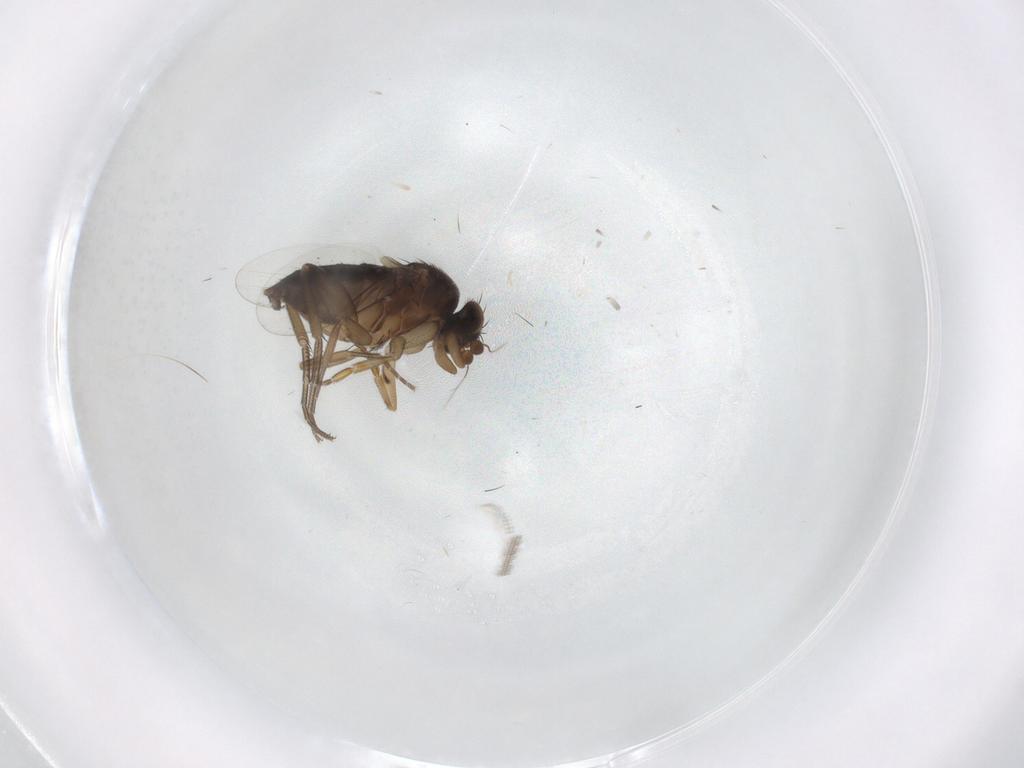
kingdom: Animalia
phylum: Arthropoda
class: Insecta
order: Diptera
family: Phoridae
